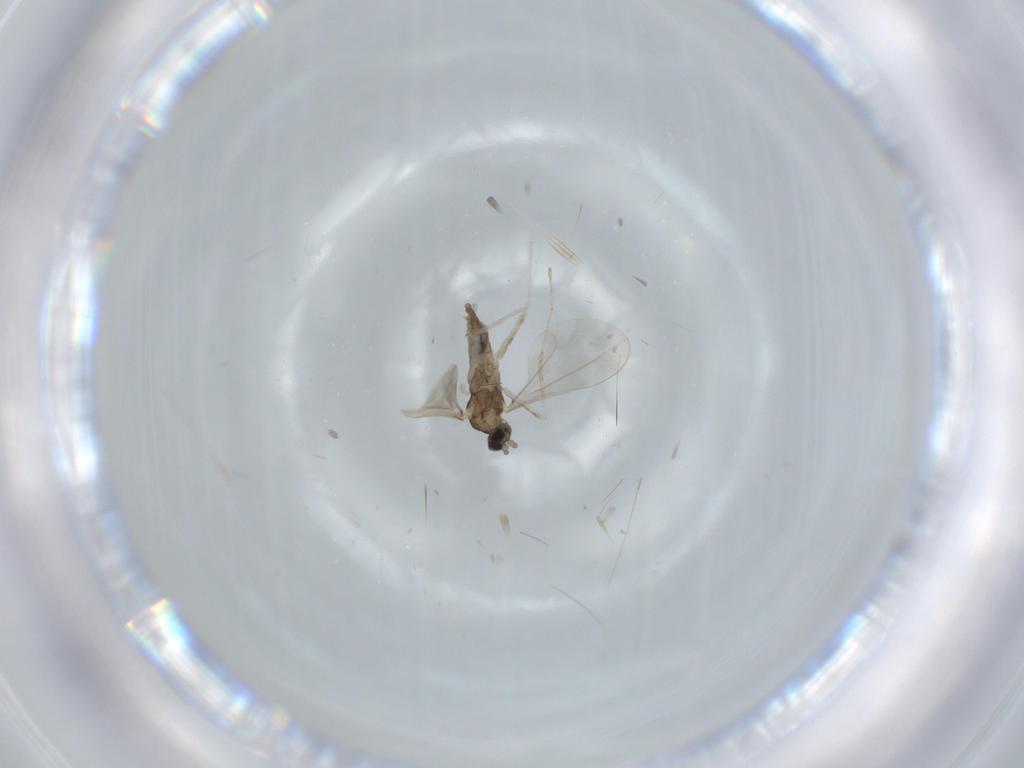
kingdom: Animalia
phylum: Arthropoda
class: Insecta
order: Diptera
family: Cecidomyiidae
